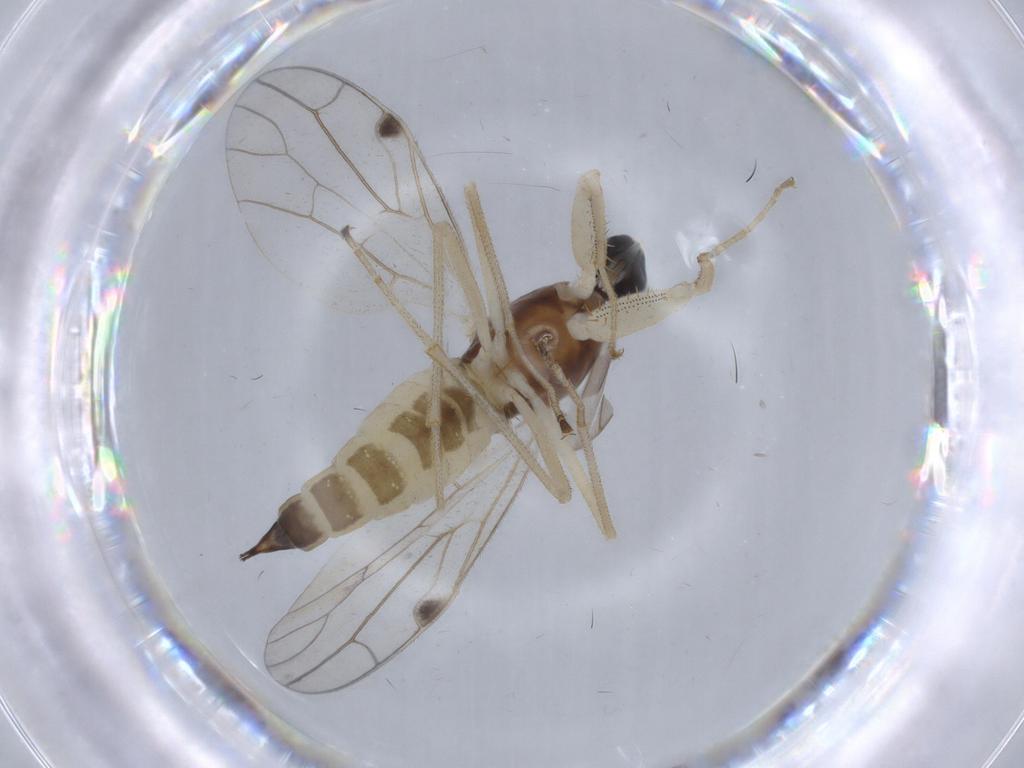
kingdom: Animalia
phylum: Arthropoda
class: Insecta
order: Diptera
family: Empididae
